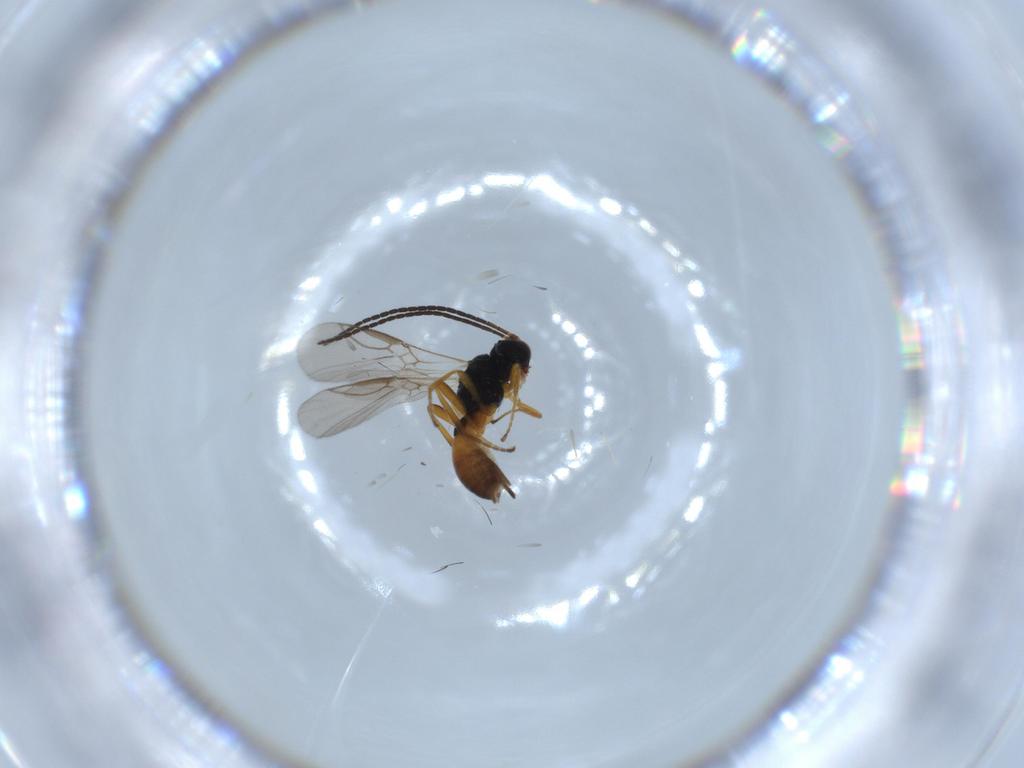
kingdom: Animalia
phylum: Arthropoda
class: Insecta
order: Hymenoptera
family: Braconidae
